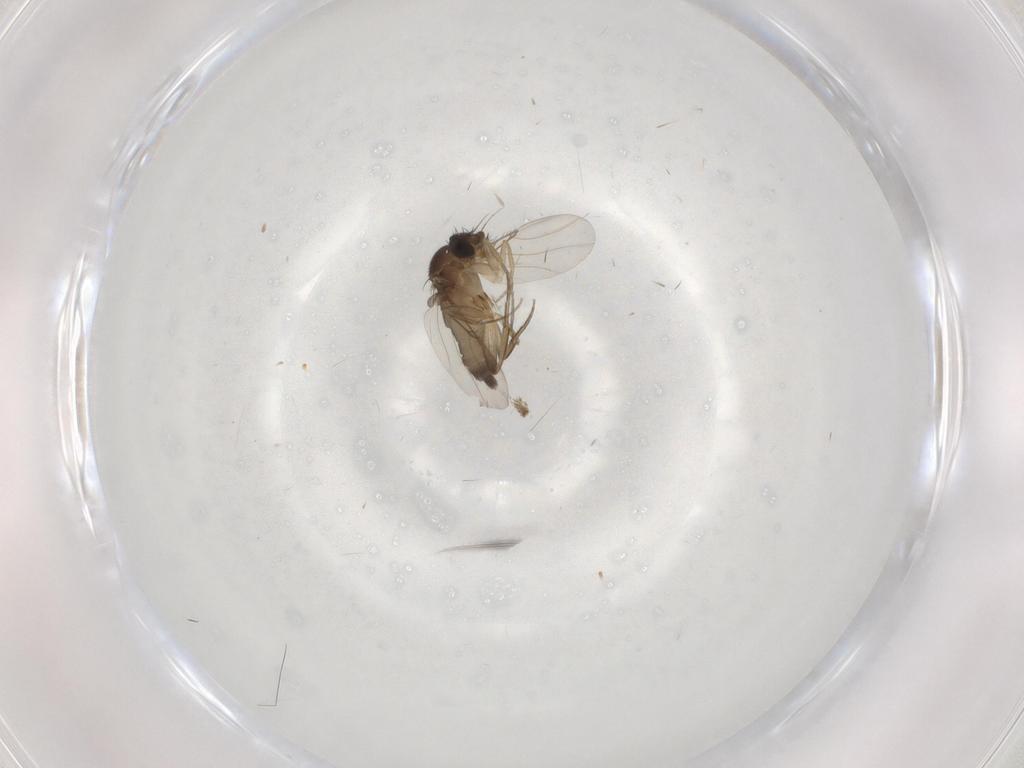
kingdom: Animalia
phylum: Arthropoda
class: Insecta
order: Diptera
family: Phoridae
